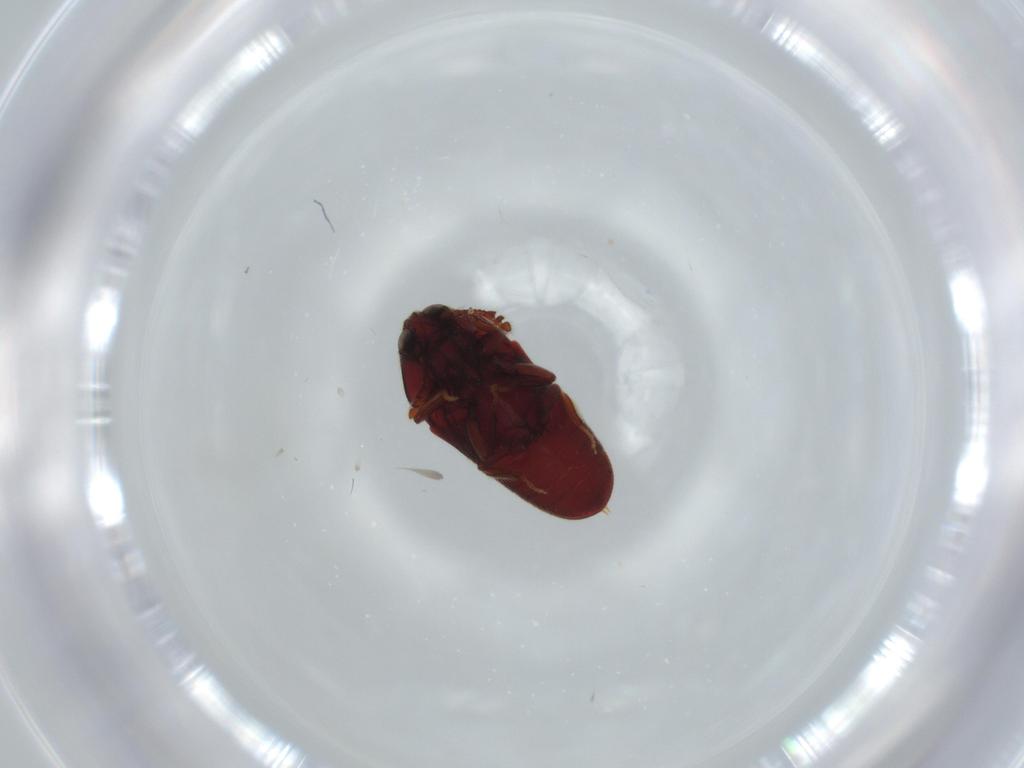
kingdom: Animalia
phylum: Arthropoda
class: Insecta
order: Coleoptera
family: Throscidae
